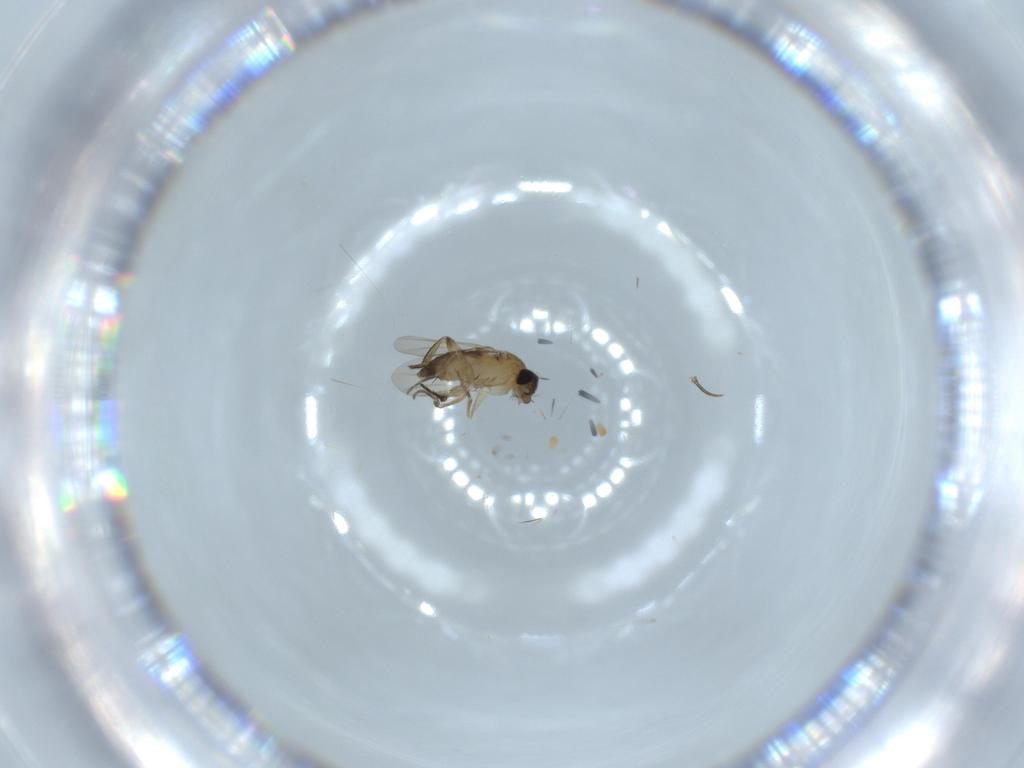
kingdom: Animalia
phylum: Arthropoda
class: Insecta
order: Diptera
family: Phoridae
